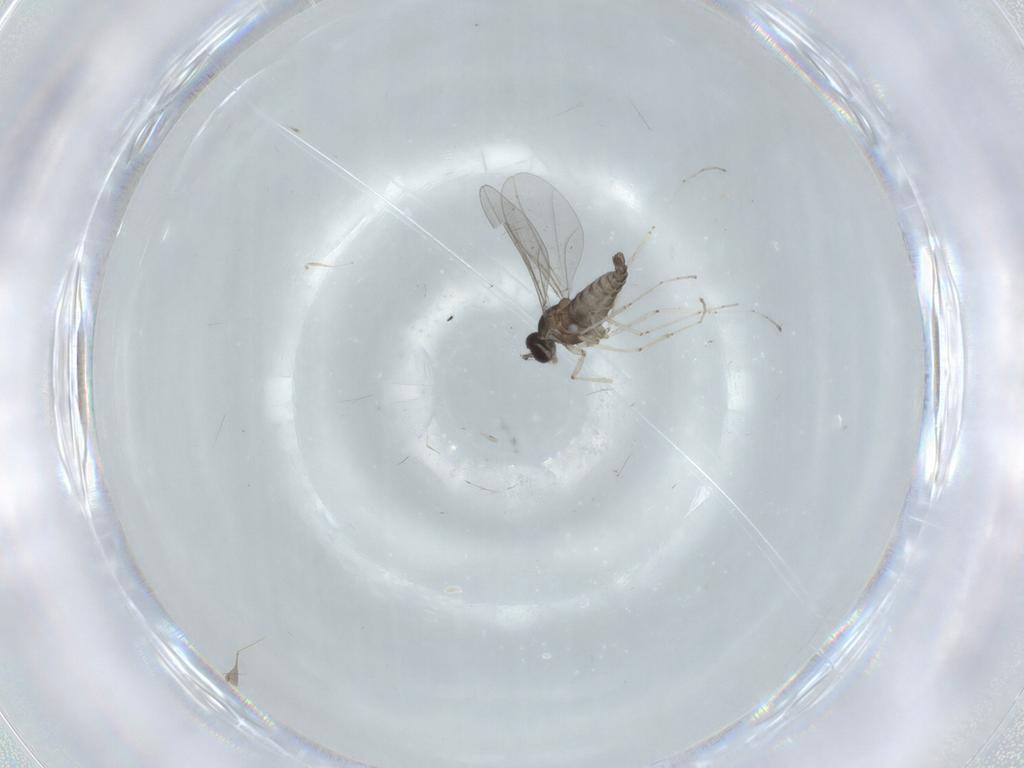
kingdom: Animalia
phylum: Arthropoda
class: Insecta
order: Diptera
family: Cecidomyiidae
